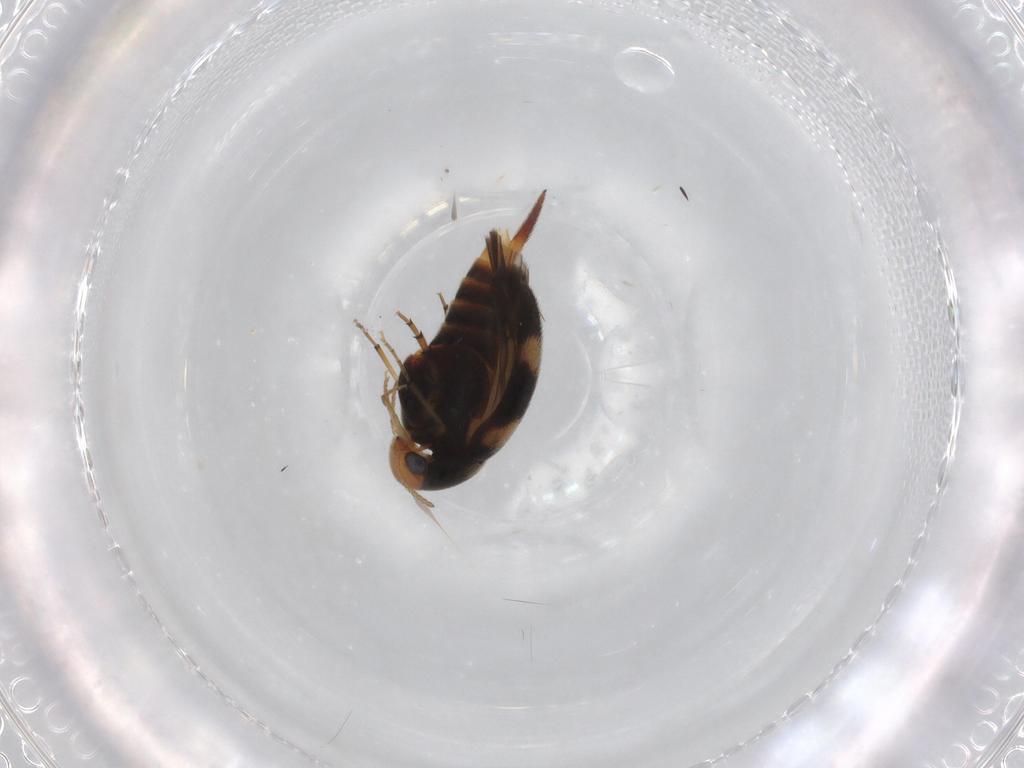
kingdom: Animalia
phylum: Arthropoda
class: Insecta
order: Coleoptera
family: Mordellidae
